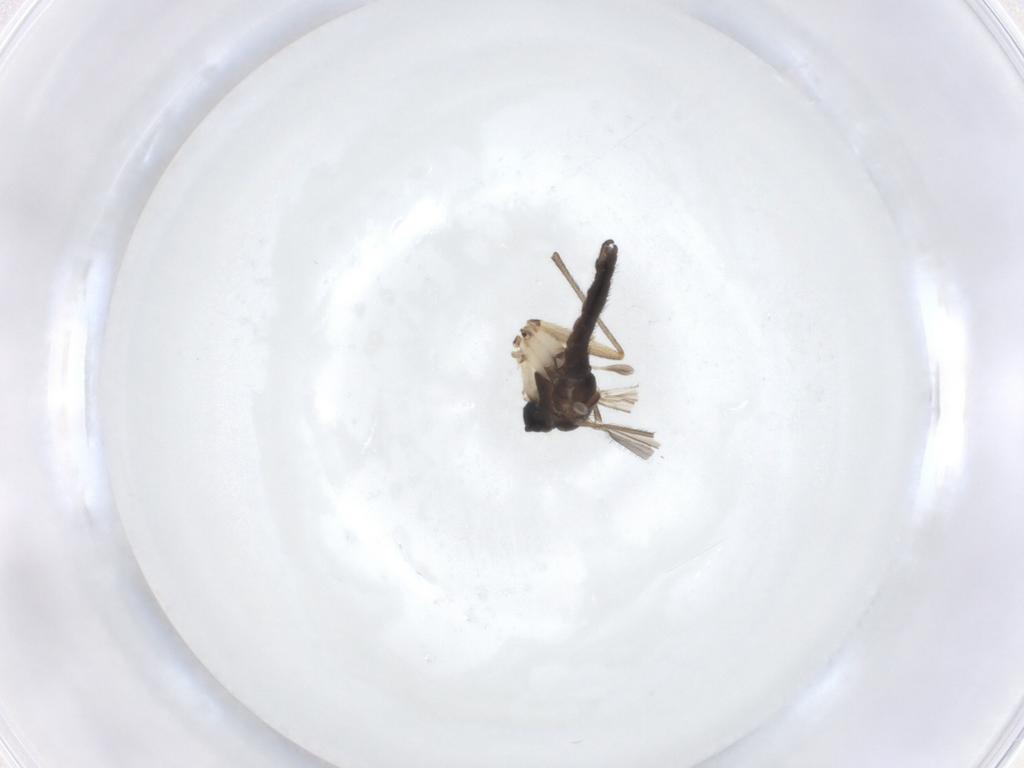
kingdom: Animalia
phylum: Arthropoda
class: Insecta
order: Diptera
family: Sciaridae
